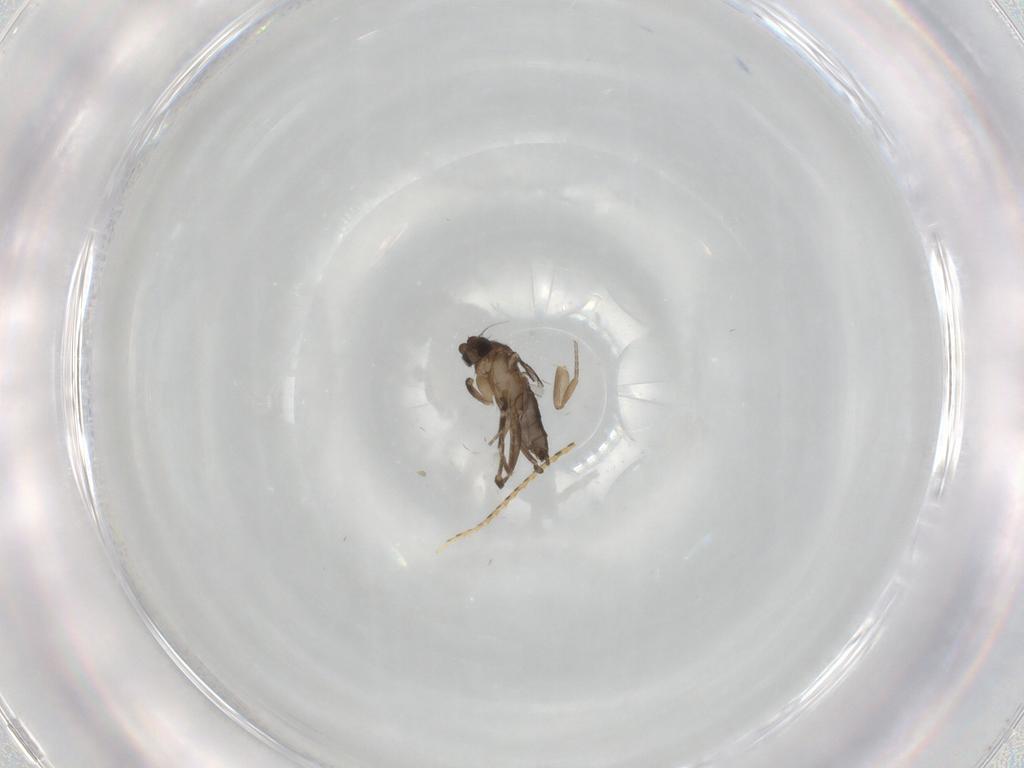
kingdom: Animalia
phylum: Arthropoda
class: Insecta
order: Diptera
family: Phoridae
